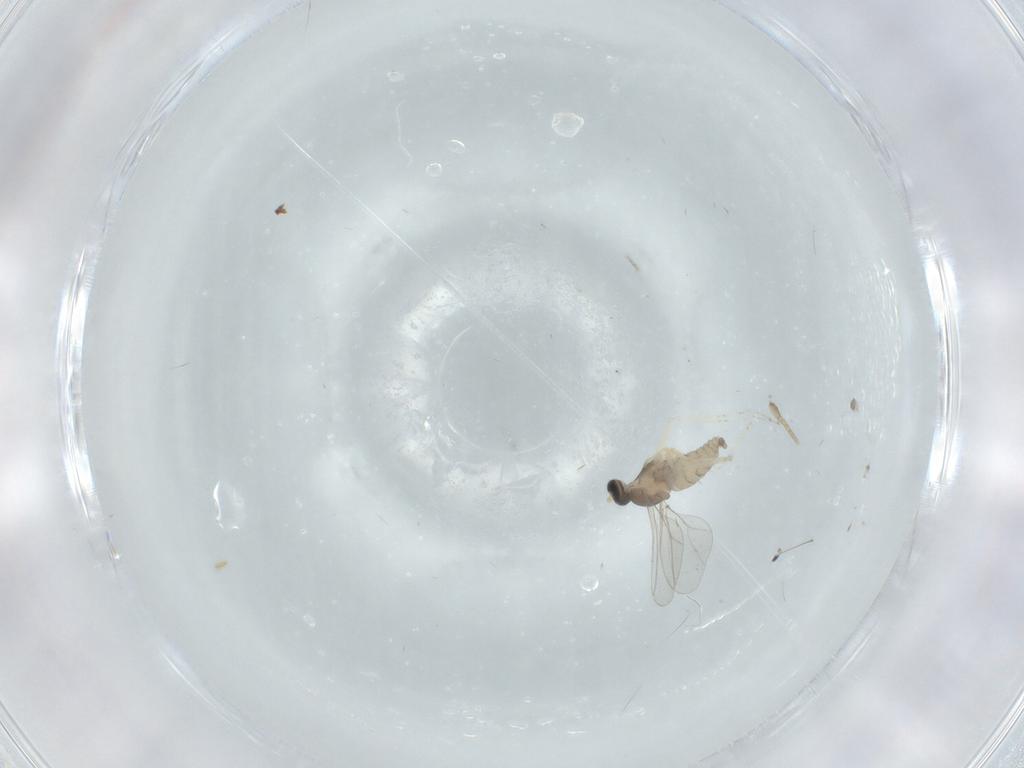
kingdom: Animalia
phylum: Arthropoda
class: Insecta
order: Diptera
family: Cecidomyiidae
